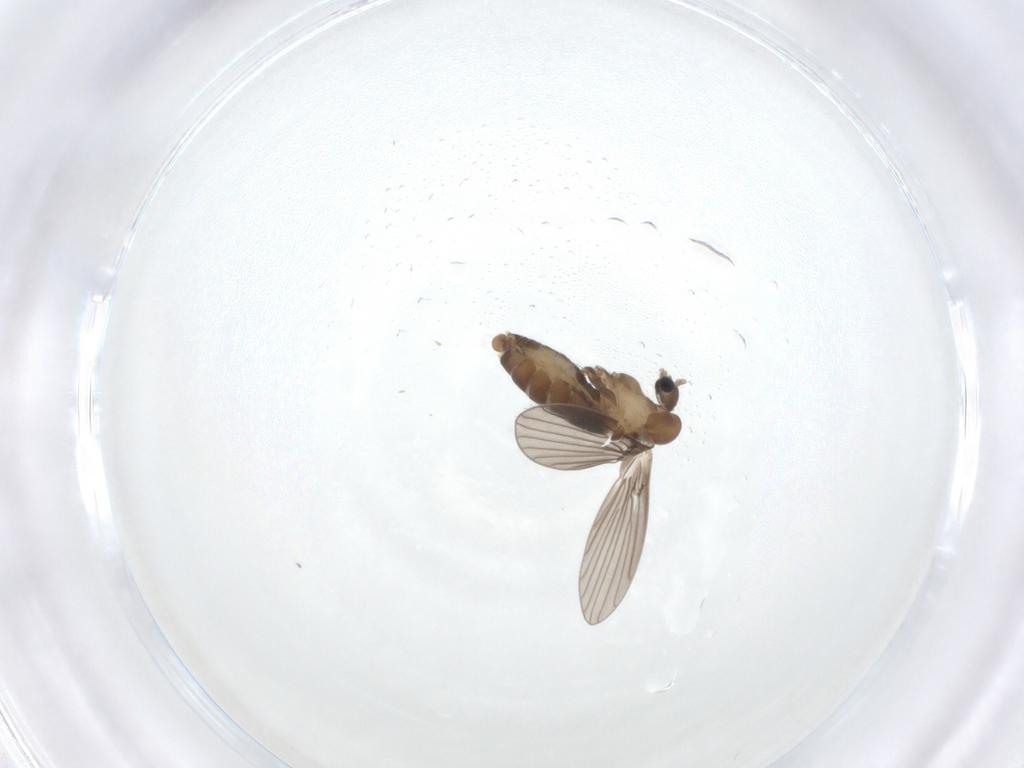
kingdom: Animalia
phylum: Arthropoda
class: Insecta
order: Diptera
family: Psychodidae
